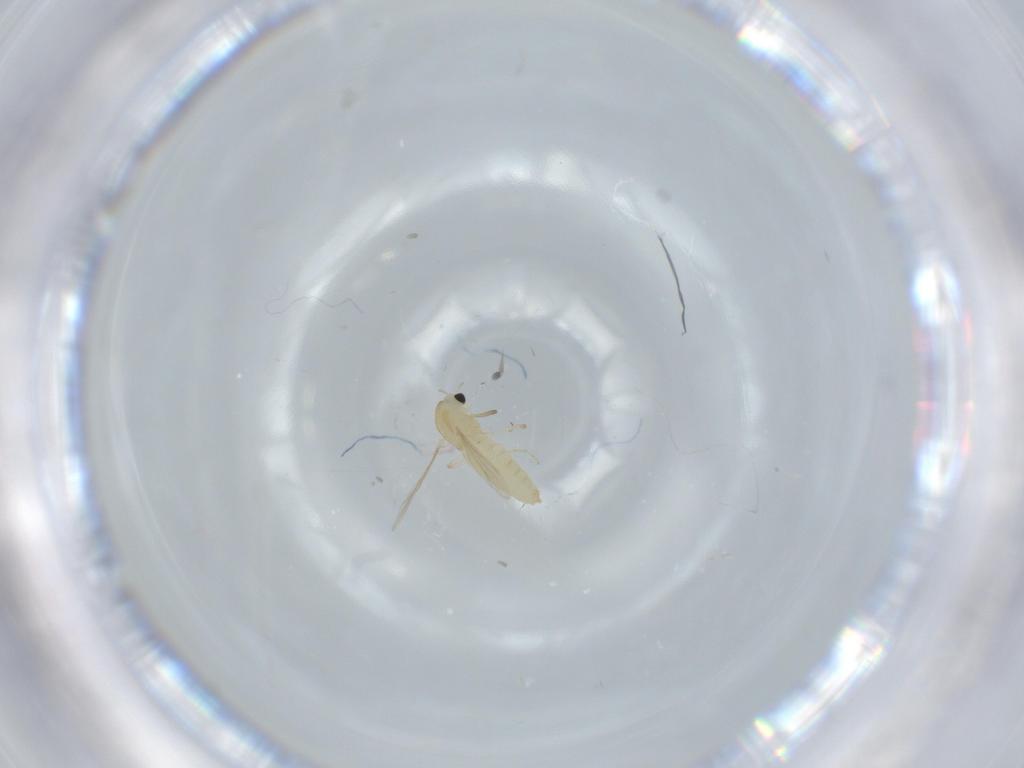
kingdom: Animalia
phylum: Arthropoda
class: Insecta
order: Diptera
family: Chironomidae
